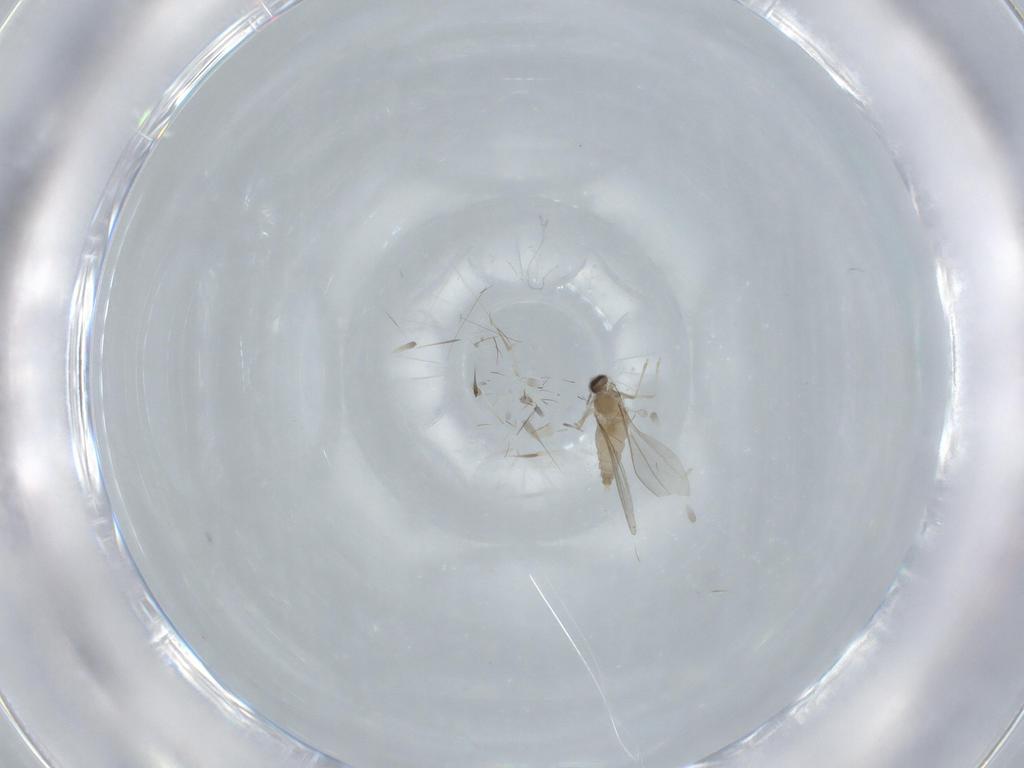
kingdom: Animalia
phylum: Arthropoda
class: Insecta
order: Diptera
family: Cecidomyiidae
